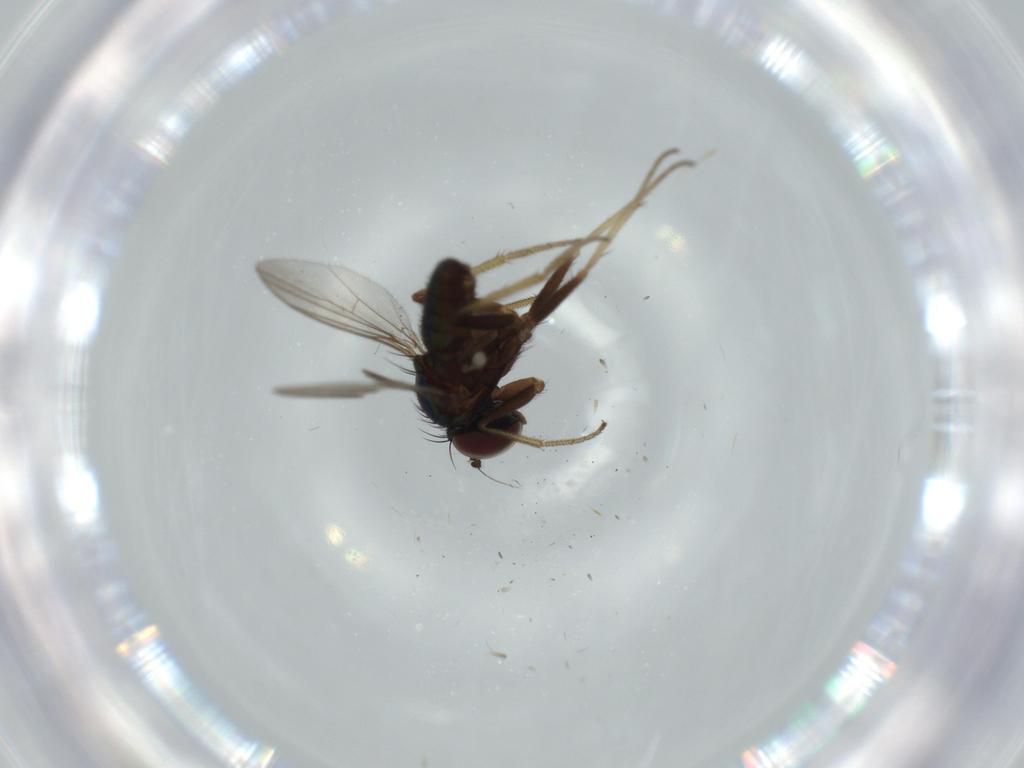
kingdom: Animalia
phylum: Arthropoda
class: Insecta
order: Diptera
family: Dolichopodidae
